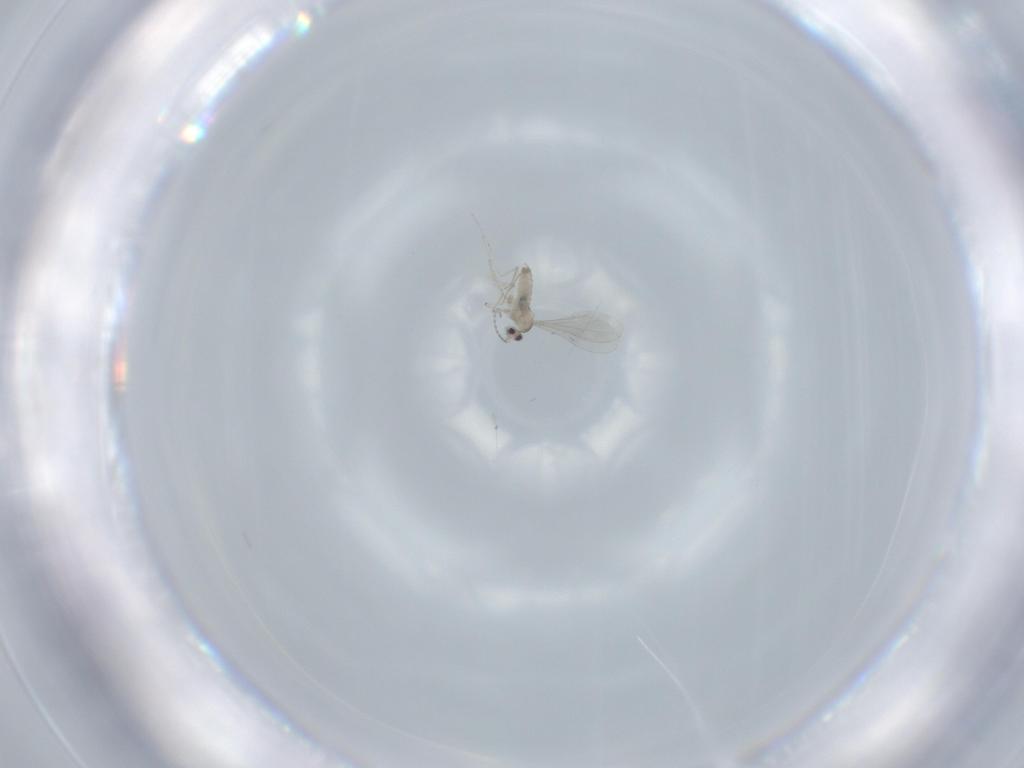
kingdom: Animalia
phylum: Arthropoda
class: Insecta
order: Diptera
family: Cecidomyiidae
